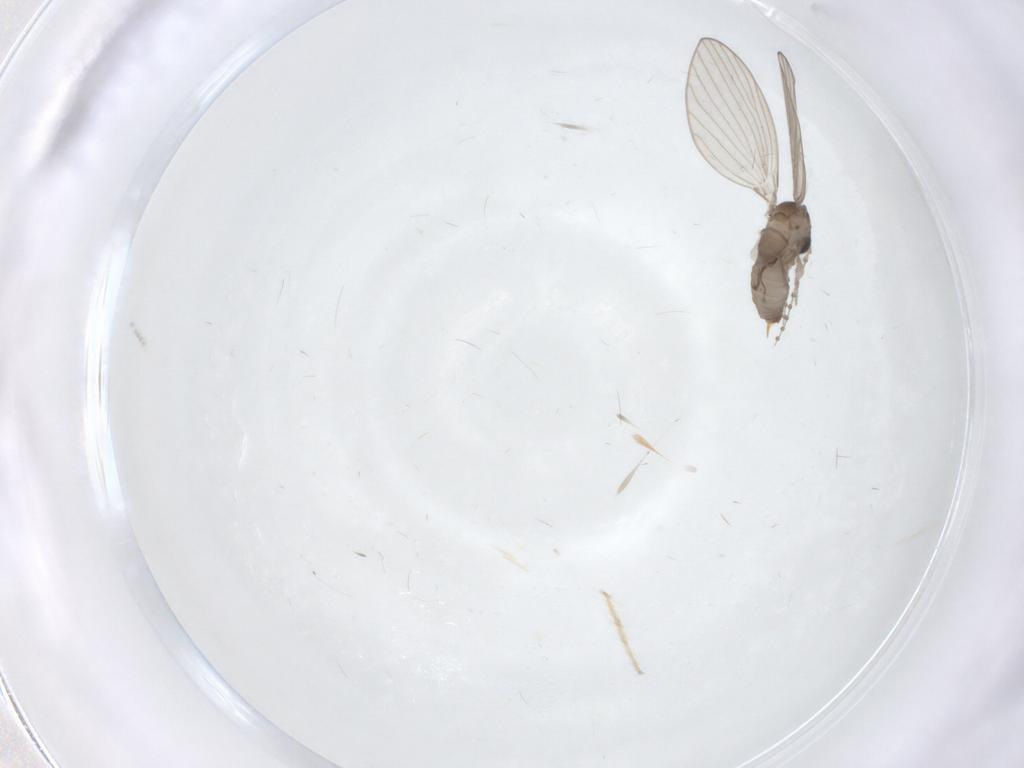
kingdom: Animalia
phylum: Arthropoda
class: Insecta
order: Diptera
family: Chironomidae
